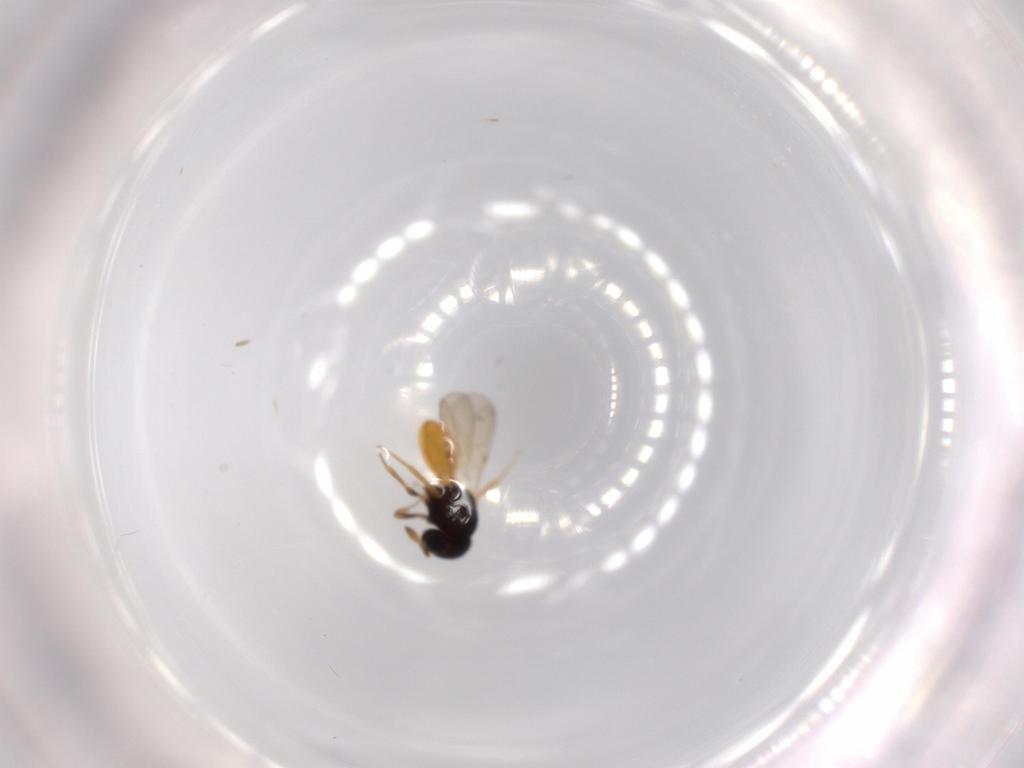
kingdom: Animalia
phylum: Arthropoda
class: Insecta
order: Hymenoptera
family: Scelionidae
